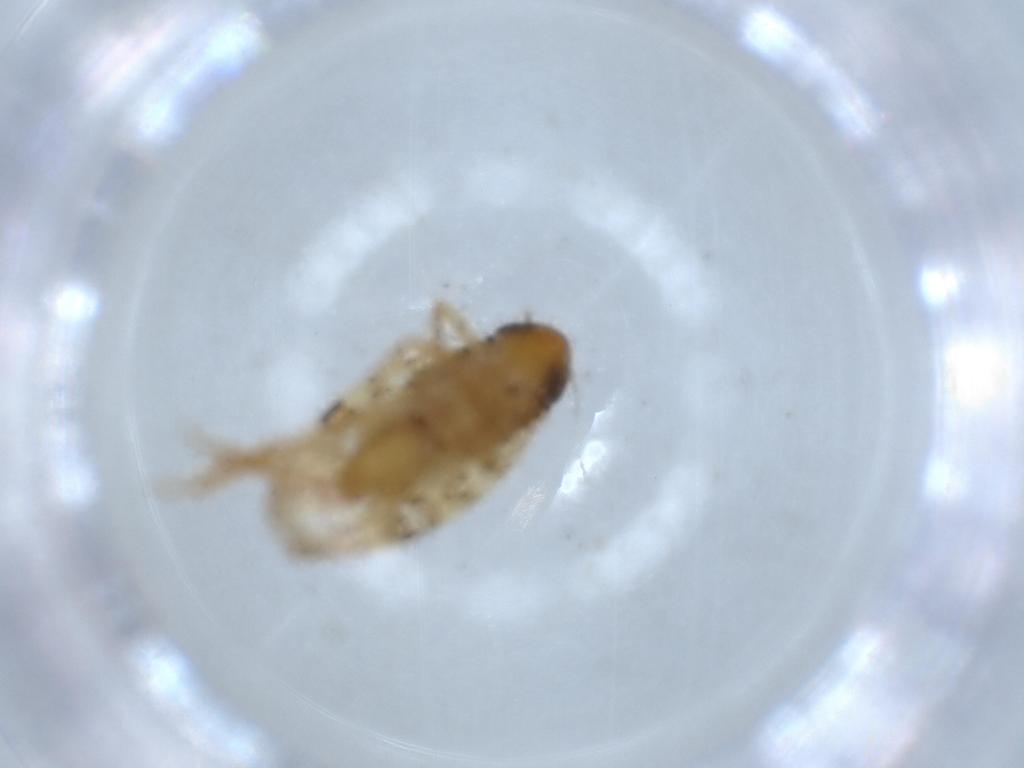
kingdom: Animalia
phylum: Arthropoda
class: Insecta
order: Hemiptera
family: Cicadellidae
